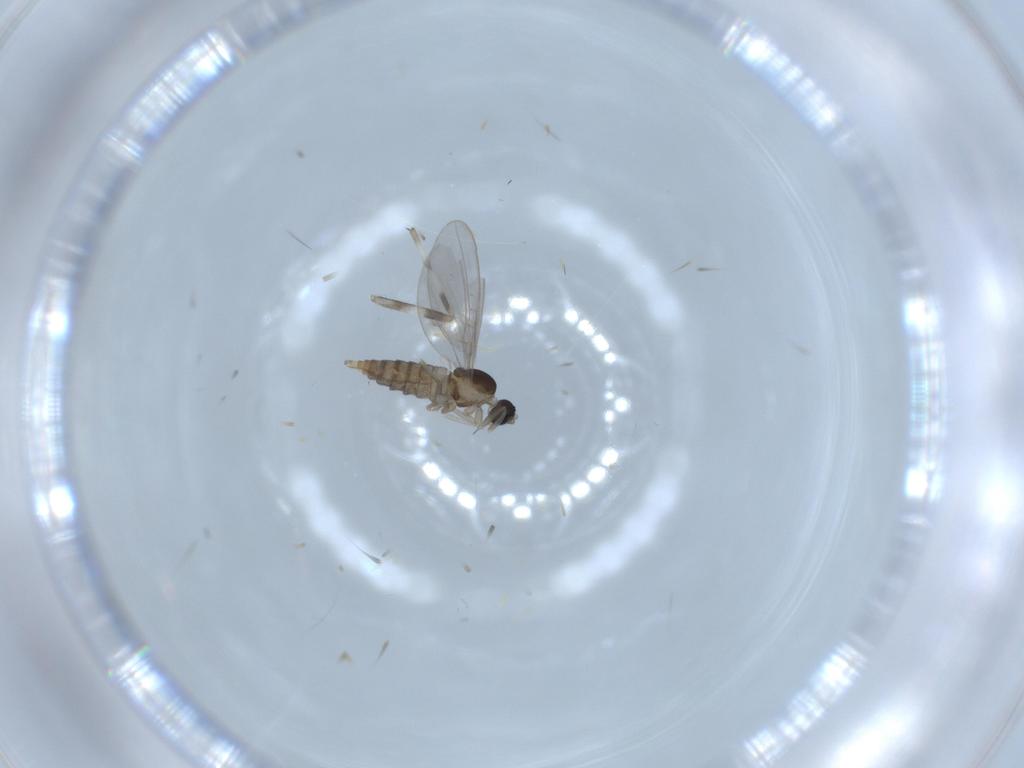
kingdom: Animalia
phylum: Arthropoda
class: Insecta
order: Diptera
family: Cecidomyiidae
